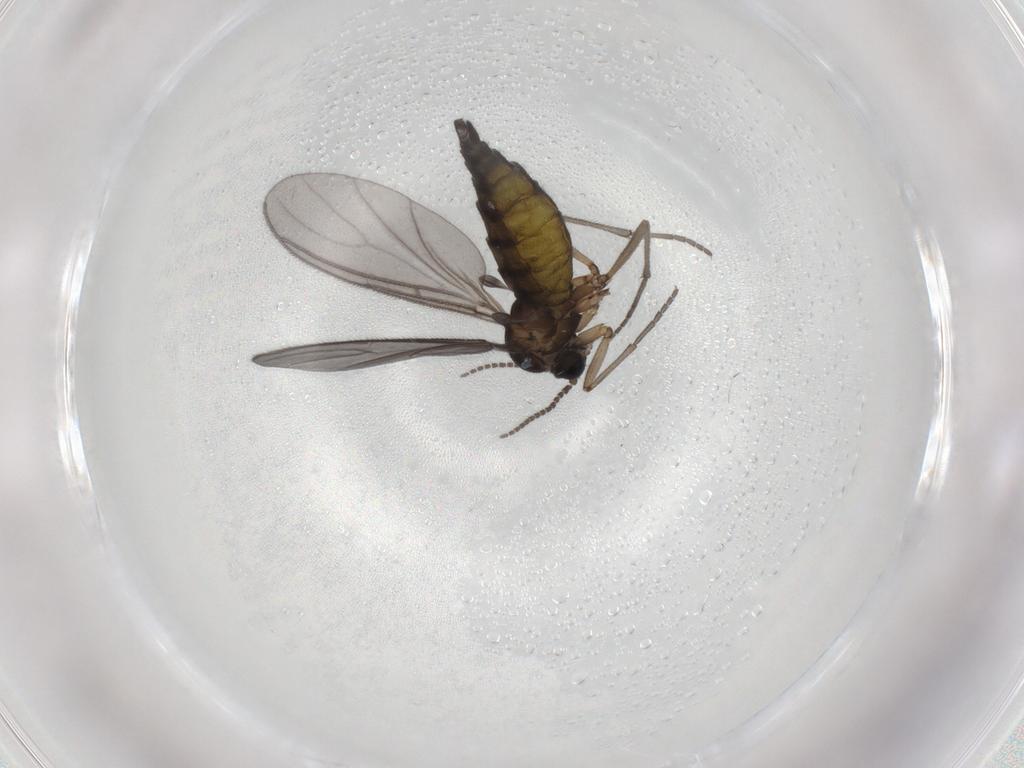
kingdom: Animalia
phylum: Arthropoda
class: Insecta
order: Diptera
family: Sciaridae
